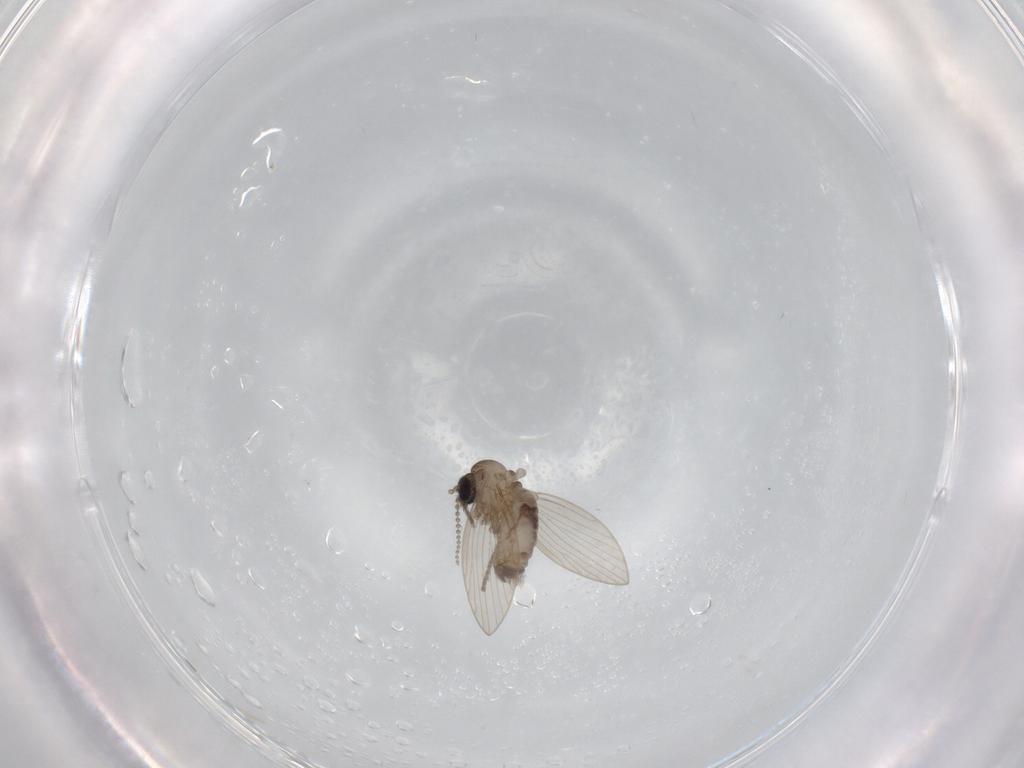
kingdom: Animalia
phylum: Arthropoda
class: Insecta
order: Diptera
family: Psychodidae
